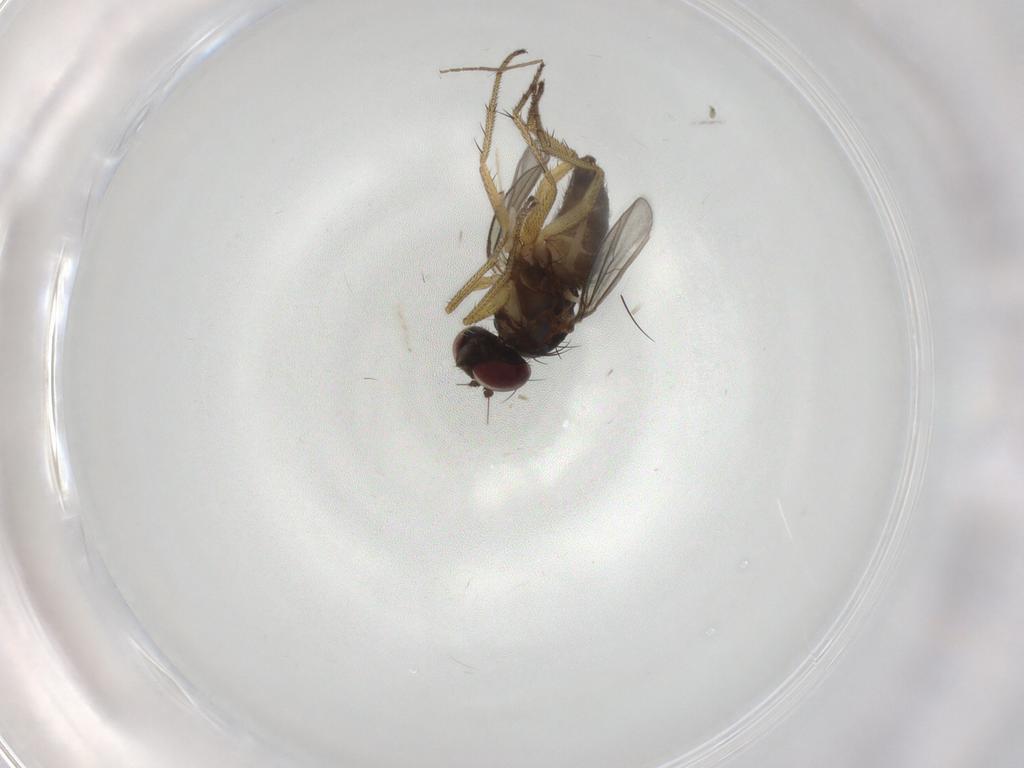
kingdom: Animalia
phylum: Arthropoda
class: Insecta
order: Diptera
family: Dolichopodidae
